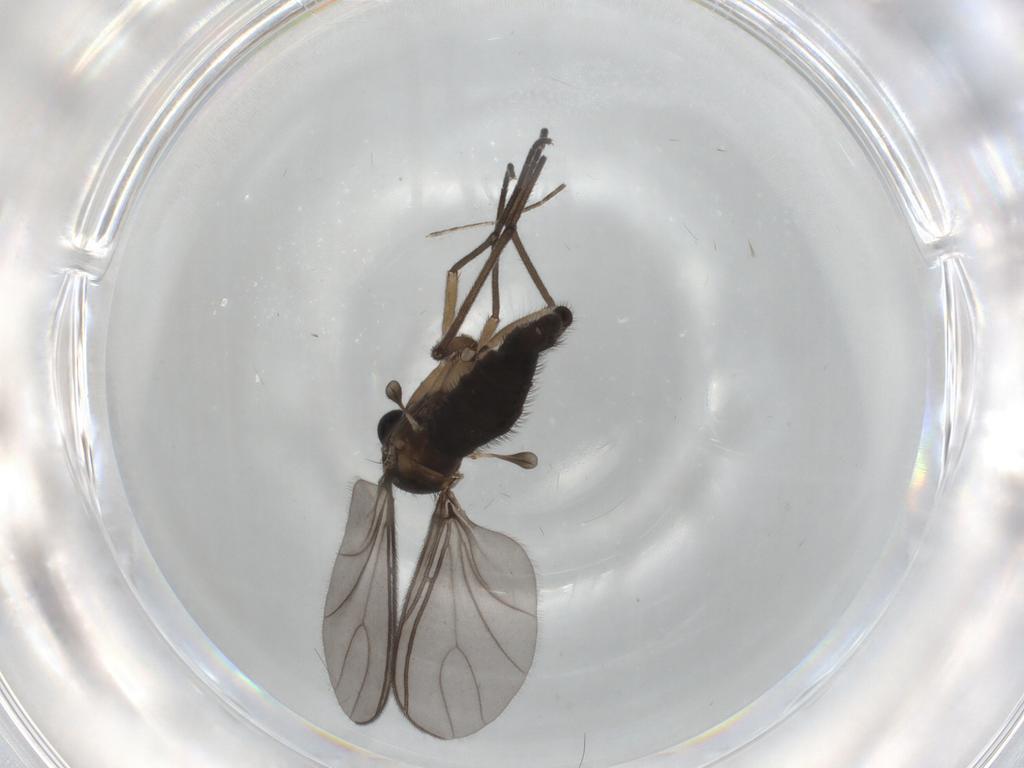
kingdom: Animalia
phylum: Arthropoda
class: Insecta
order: Diptera
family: Sciaridae
